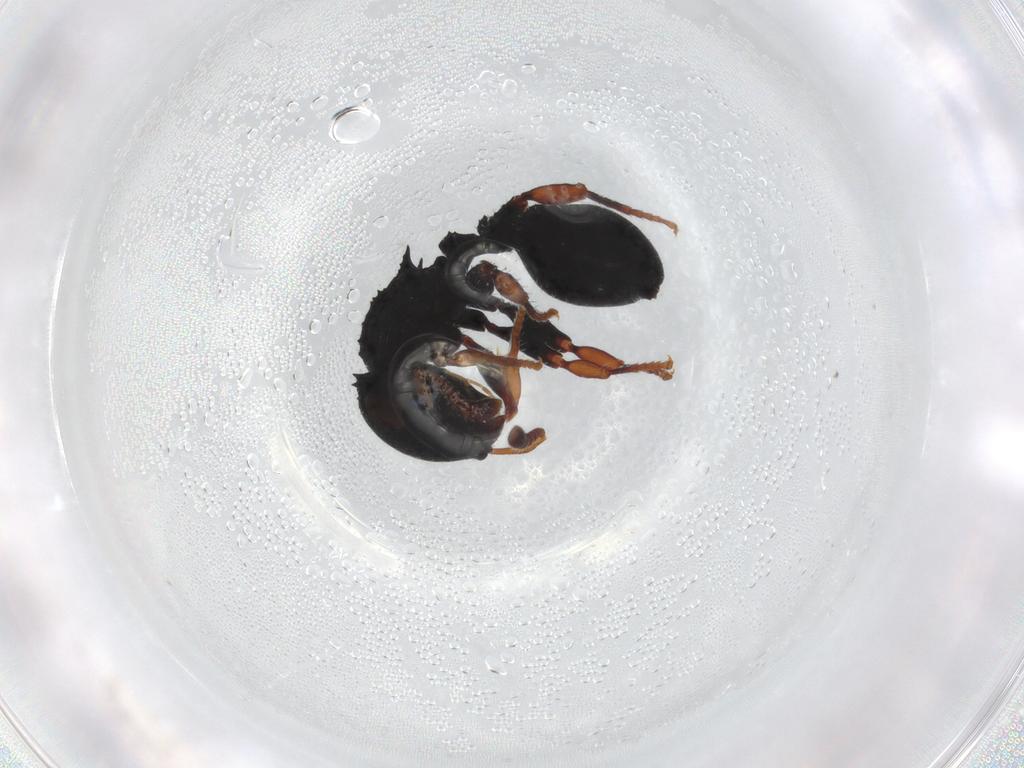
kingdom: Animalia
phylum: Arthropoda
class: Insecta
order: Hymenoptera
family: Formicidae
